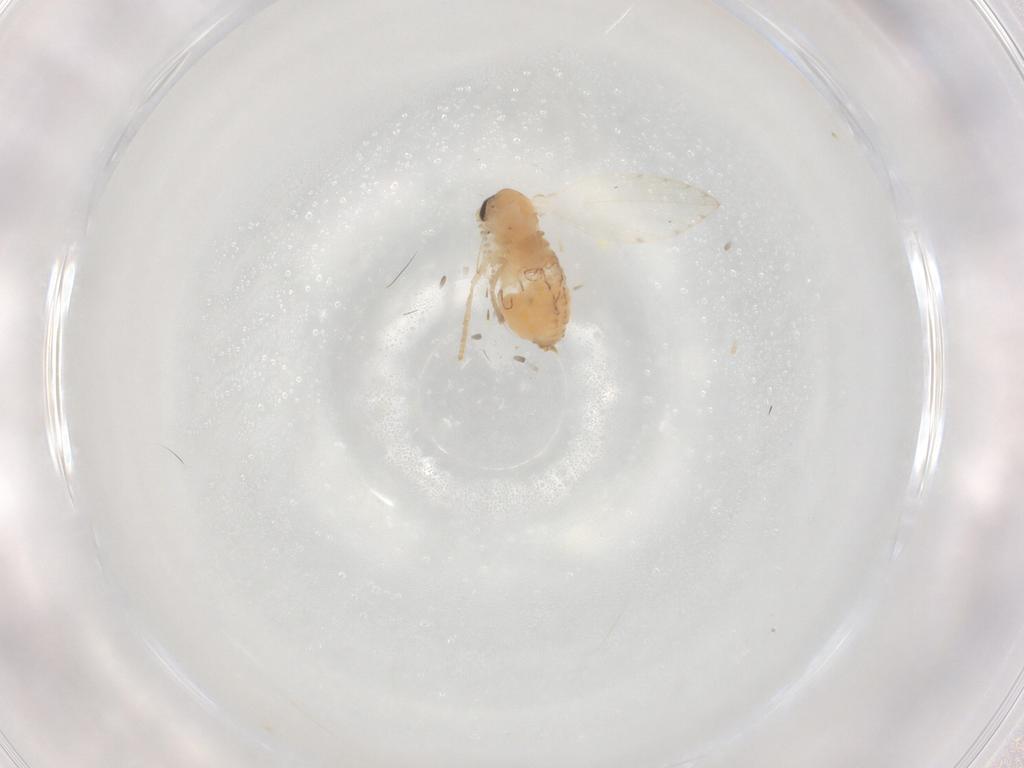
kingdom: Animalia
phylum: Arthropoda
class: Insecta
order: Diptera
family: Psychodidae
